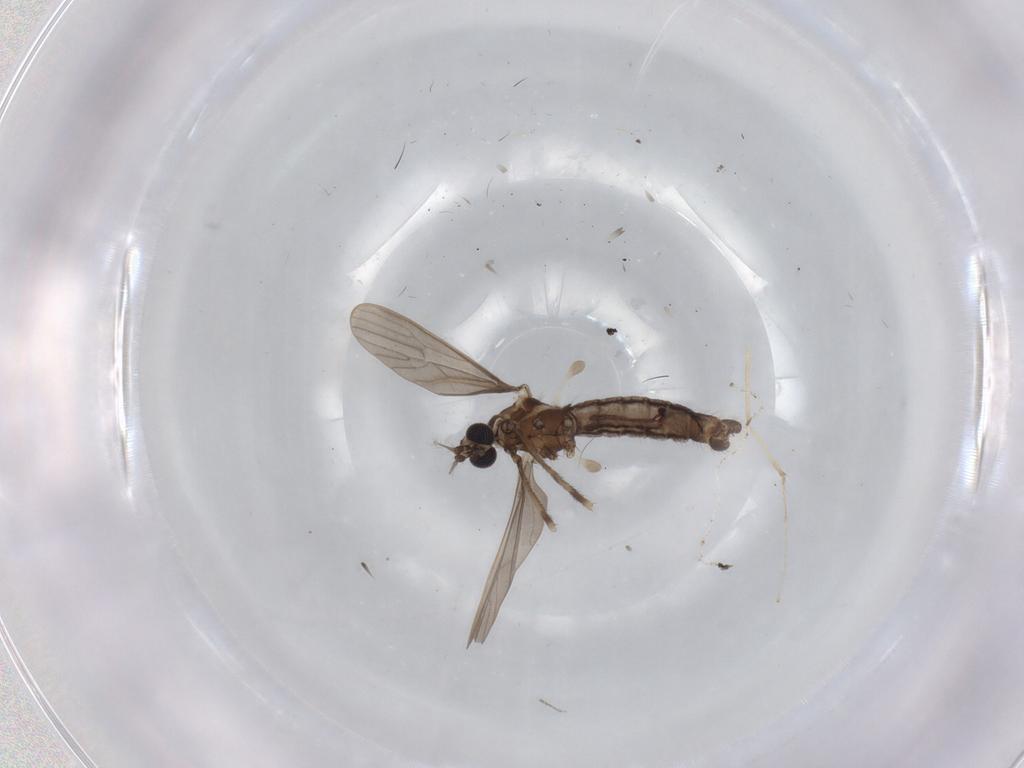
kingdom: Animalia
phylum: Arthropoda
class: Insecta
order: Diptera
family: Limoniidae
